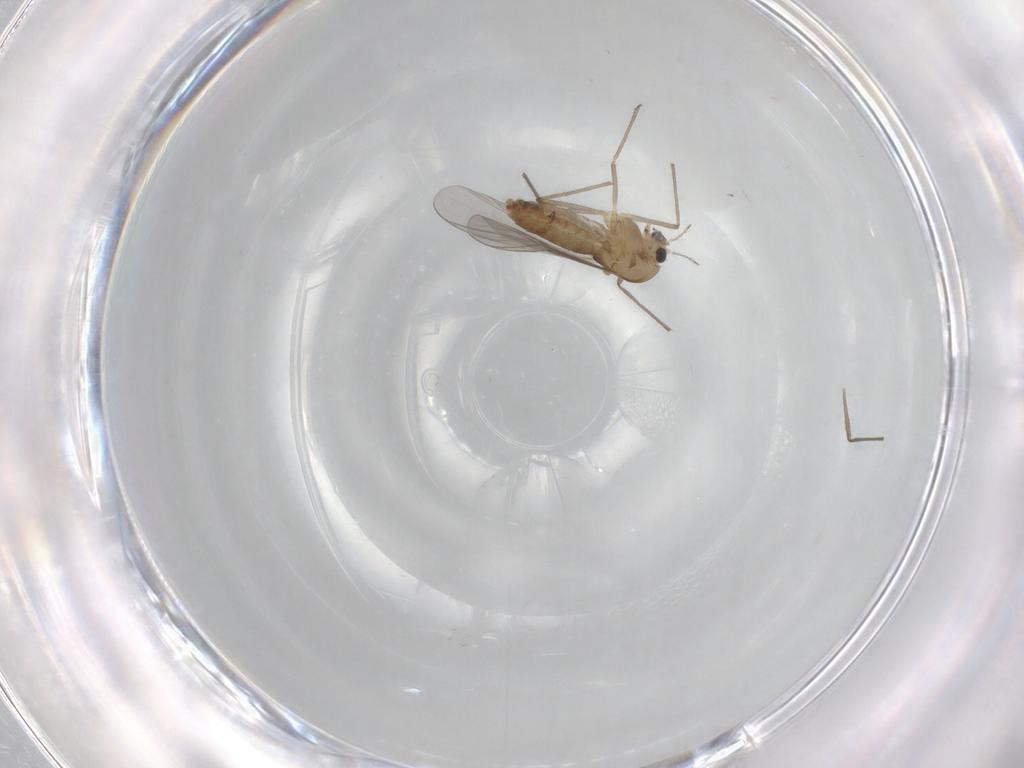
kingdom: Animalia
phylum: Arthropoda
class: Insecta
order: Diptera
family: Chironomidae
